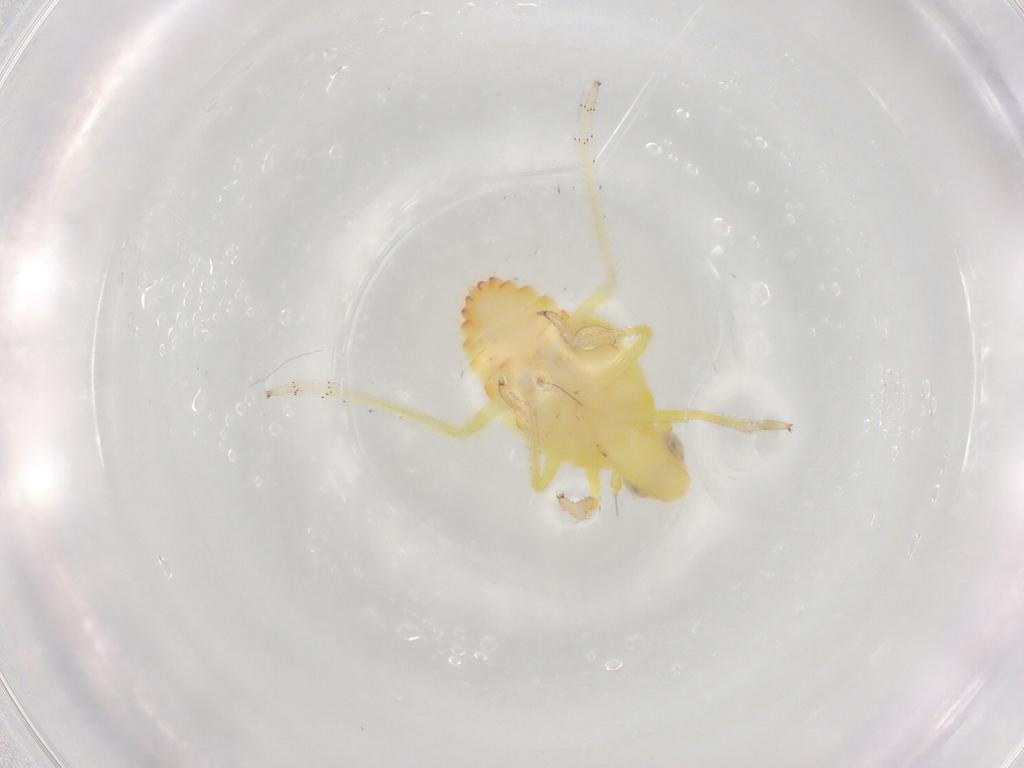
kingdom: Animalia
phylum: Arthropoda
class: Insecta
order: Hemiptera
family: Tropiduchidae
